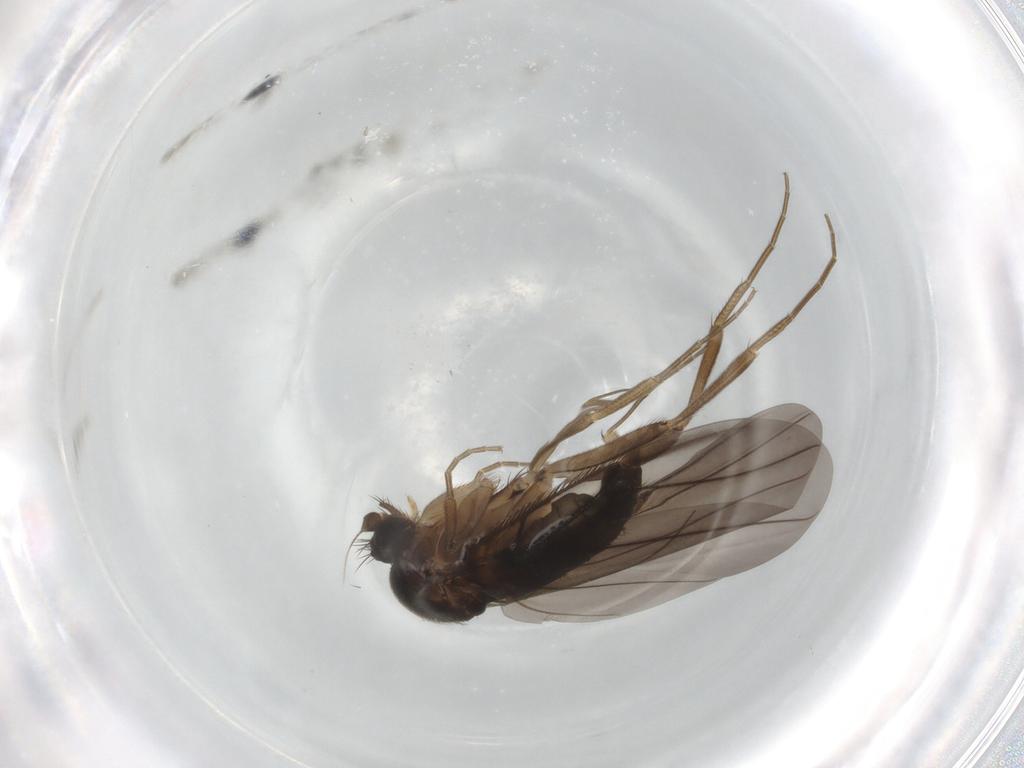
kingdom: Animalia
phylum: Arthropoda
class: Insecta
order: Diptera
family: Phoridae
